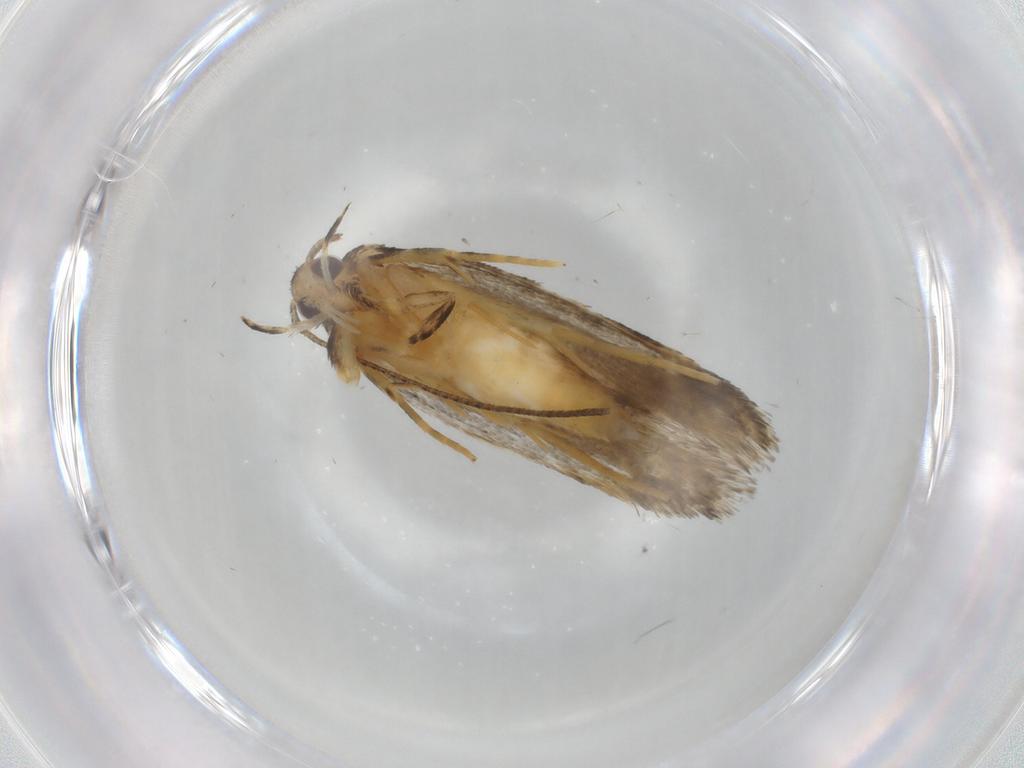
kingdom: Animalia
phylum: Arthropoda
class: Insecta
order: Lepidoptera
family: Autostichidae
